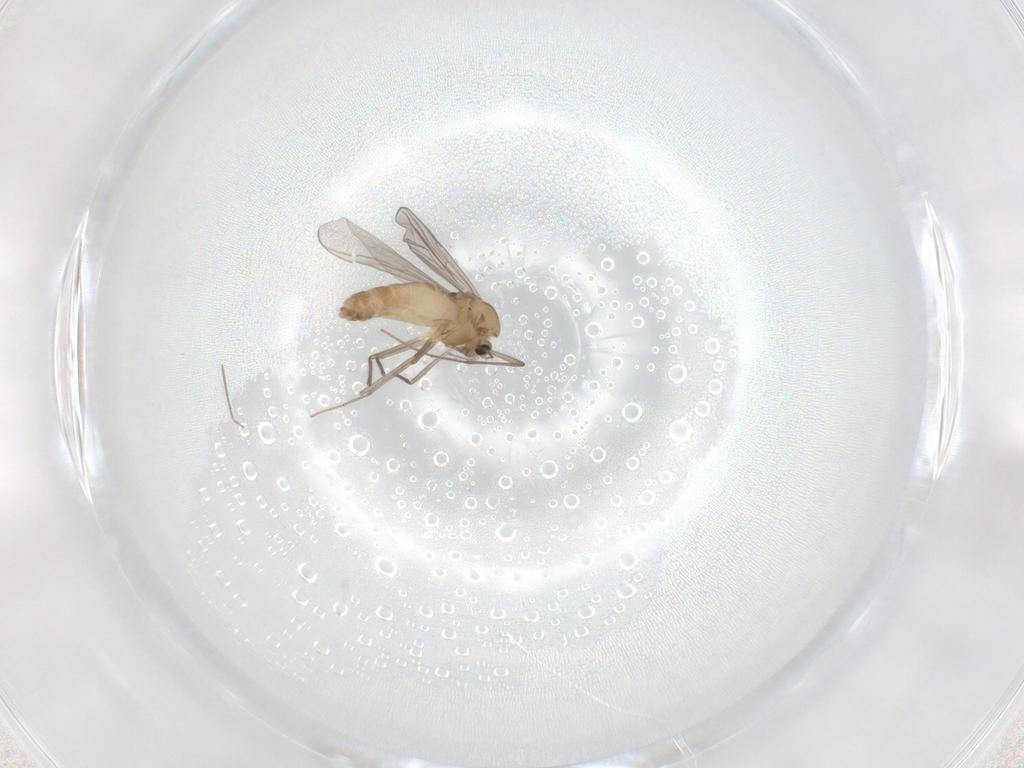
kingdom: Animalia
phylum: Arthropoda
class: Insecta
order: Diptera
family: Chironomidae
